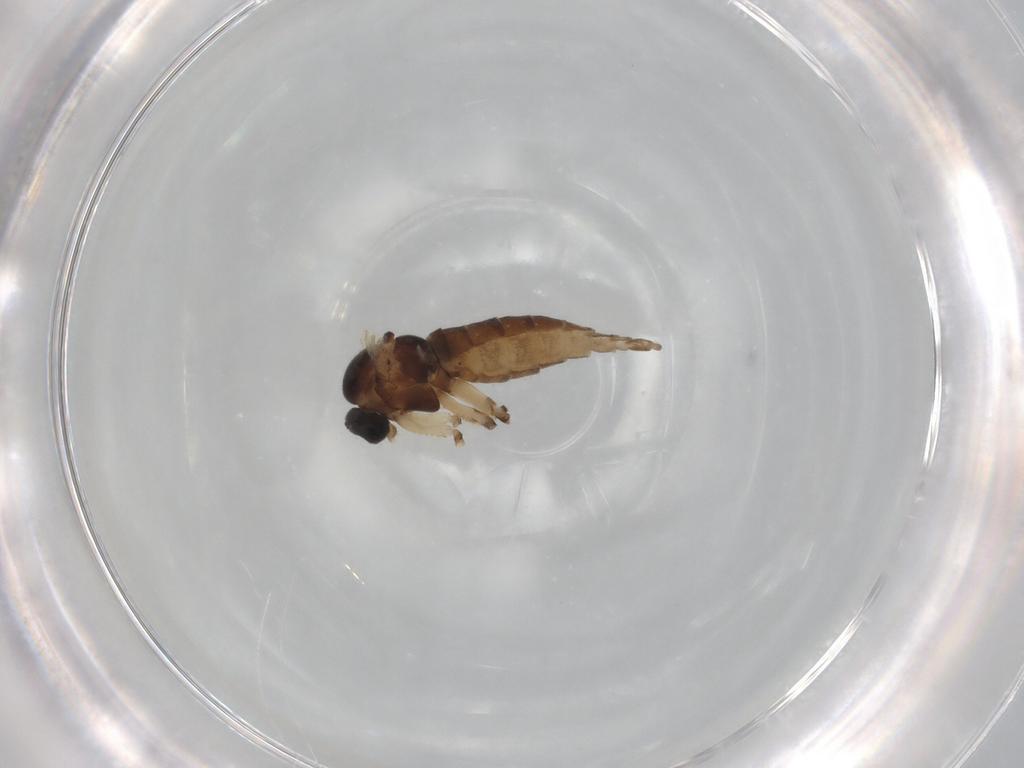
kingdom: Animalia
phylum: Arthropoda
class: Insecta
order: Diptera
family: Sciaridae
